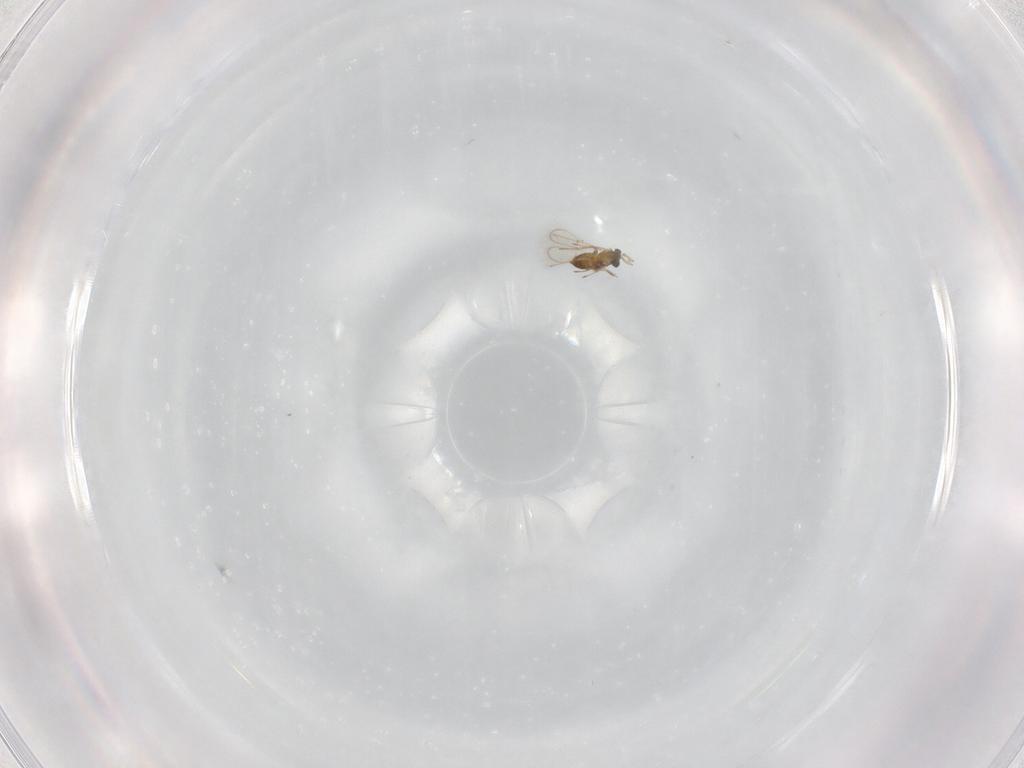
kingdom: Animalia
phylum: Arthropoda
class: Insecta
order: Hymenoptera
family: Trichogrammatidae
